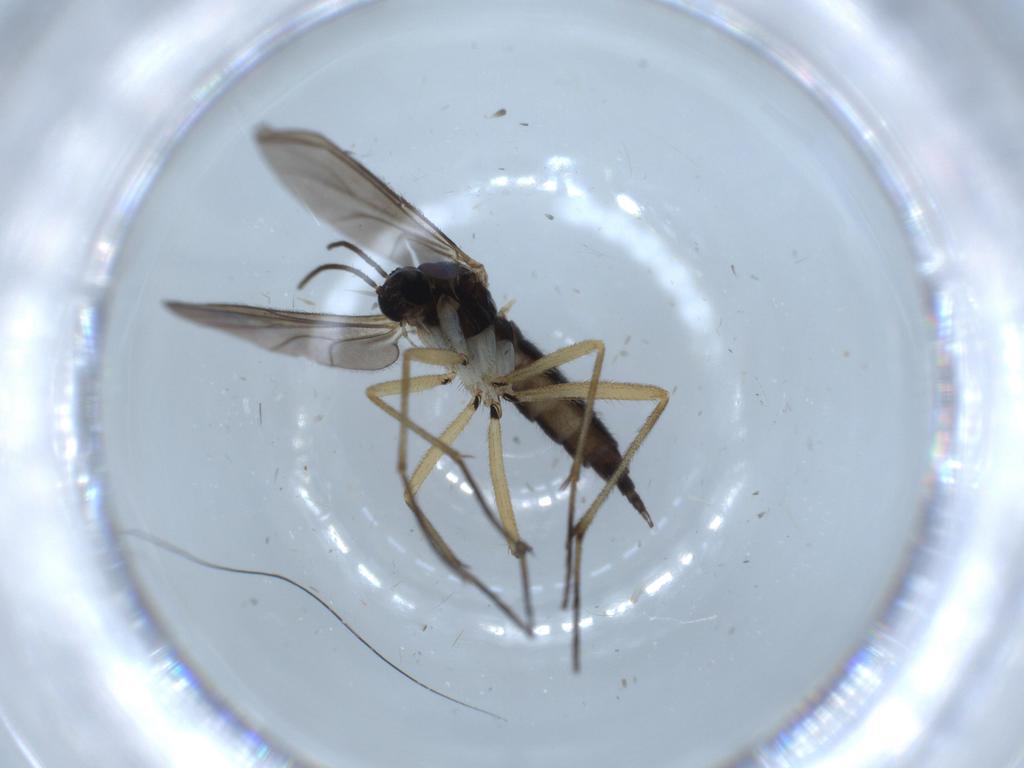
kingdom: Animalia
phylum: Arthropoda
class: Insecta
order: Diptera
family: Sciaridae
